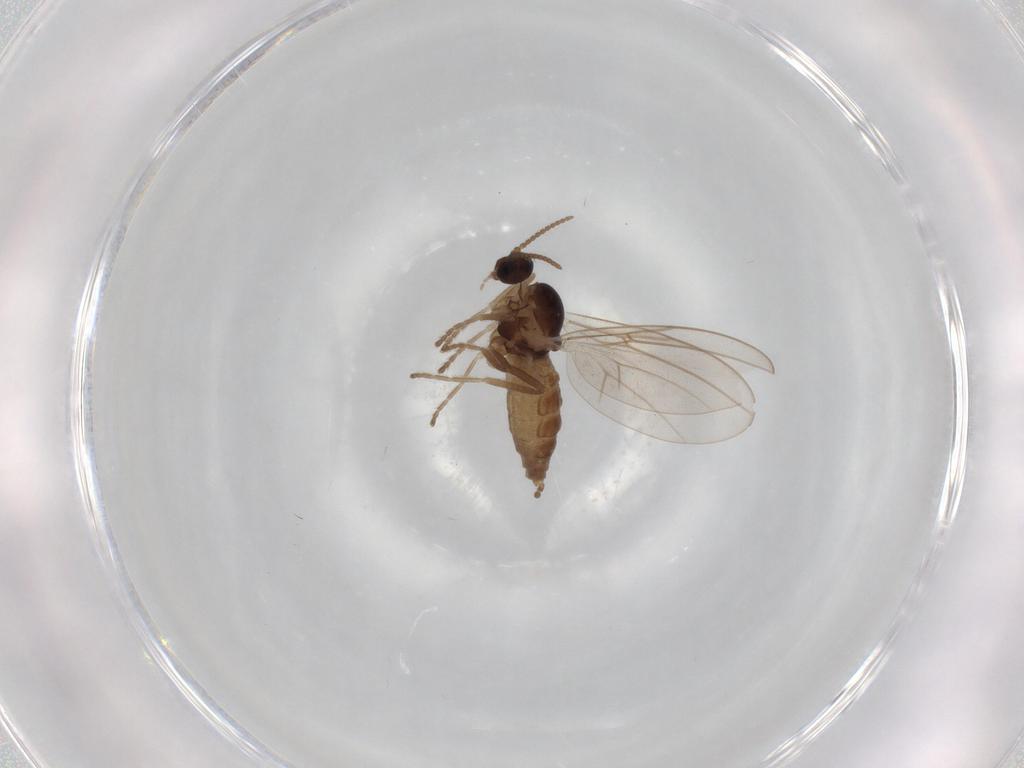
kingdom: Animalia
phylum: Arthropoda
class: Insecta
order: Diptera
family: Cecidomyiidae
